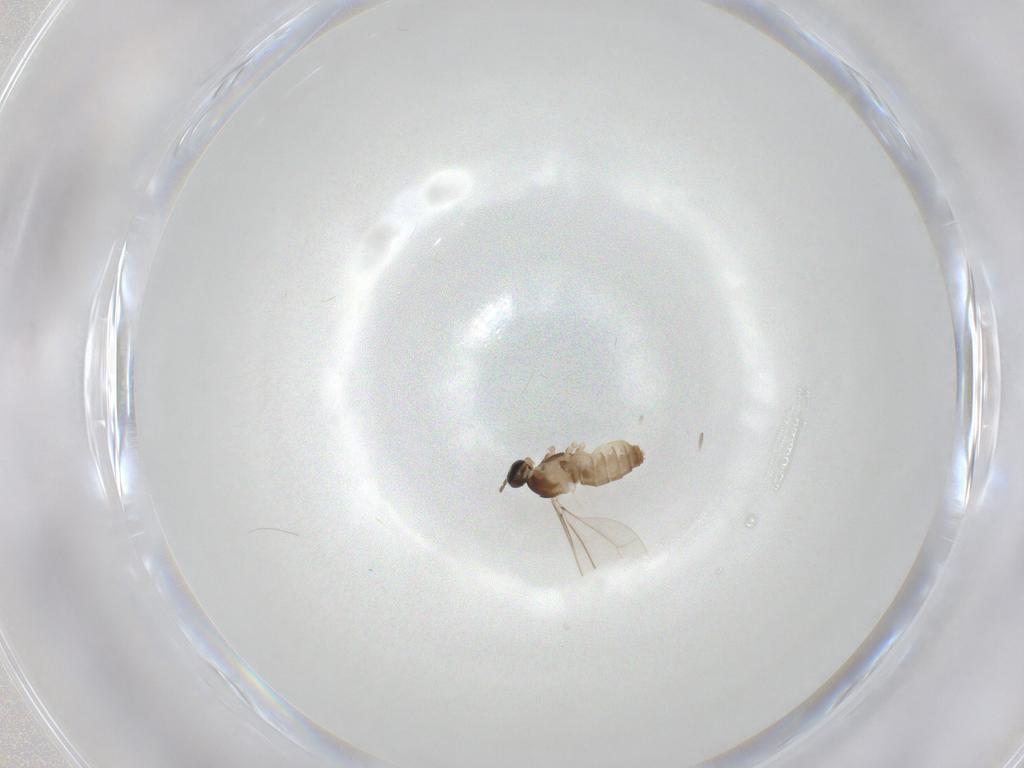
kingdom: Animalia
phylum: Arthropoda
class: Insecta
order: Diptera
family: Cecidomyiidae
